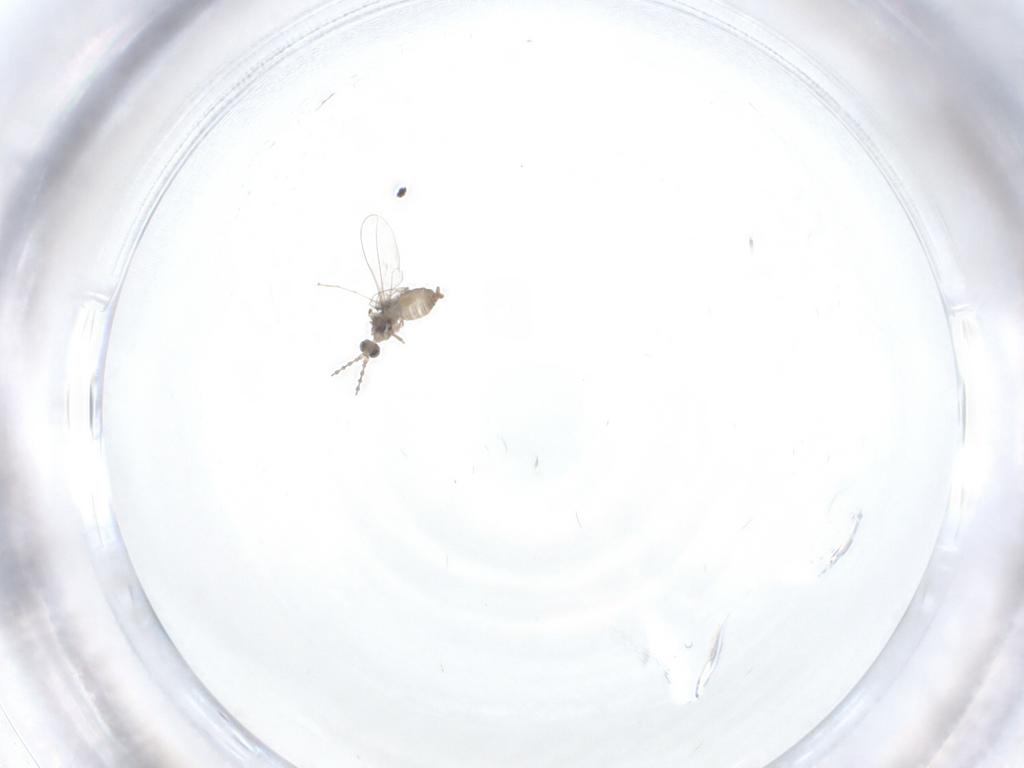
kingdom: Animalia
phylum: Arthropoda
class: Insecta
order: Diptera
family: Cecidomyiidae
